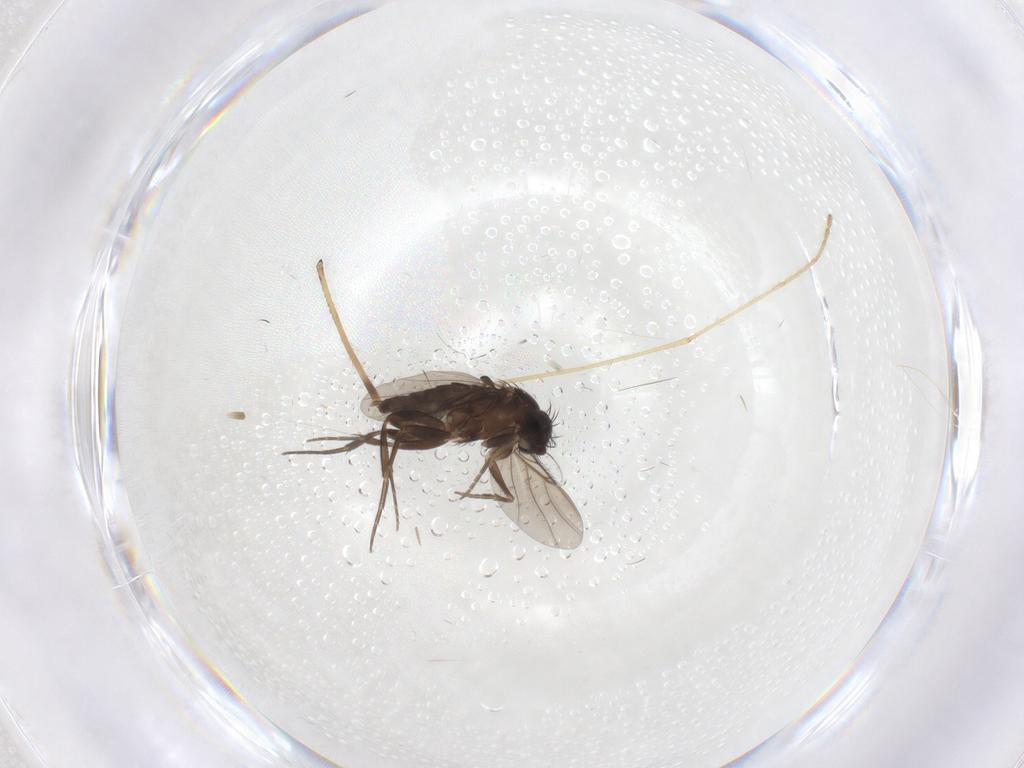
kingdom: Animalia
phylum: Arthropoda
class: Insecta
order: Diptera
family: Phoridae
